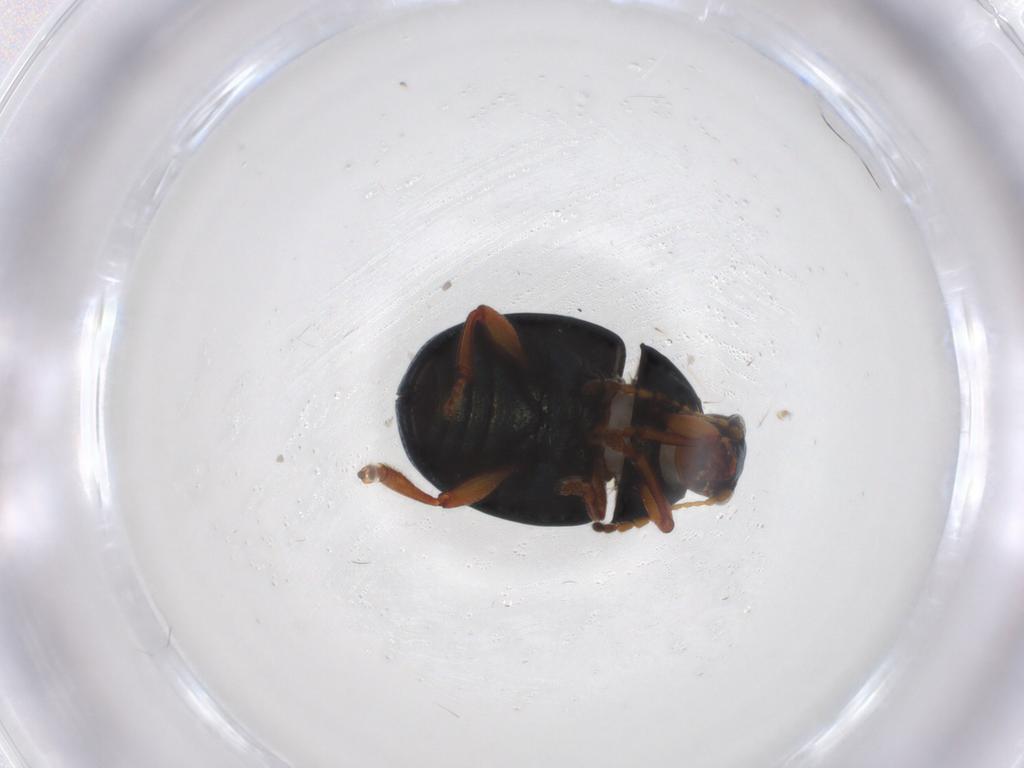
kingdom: Animalia
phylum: Arthropoda
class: Insecta
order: Coleoptera
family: Chrysomelidae
